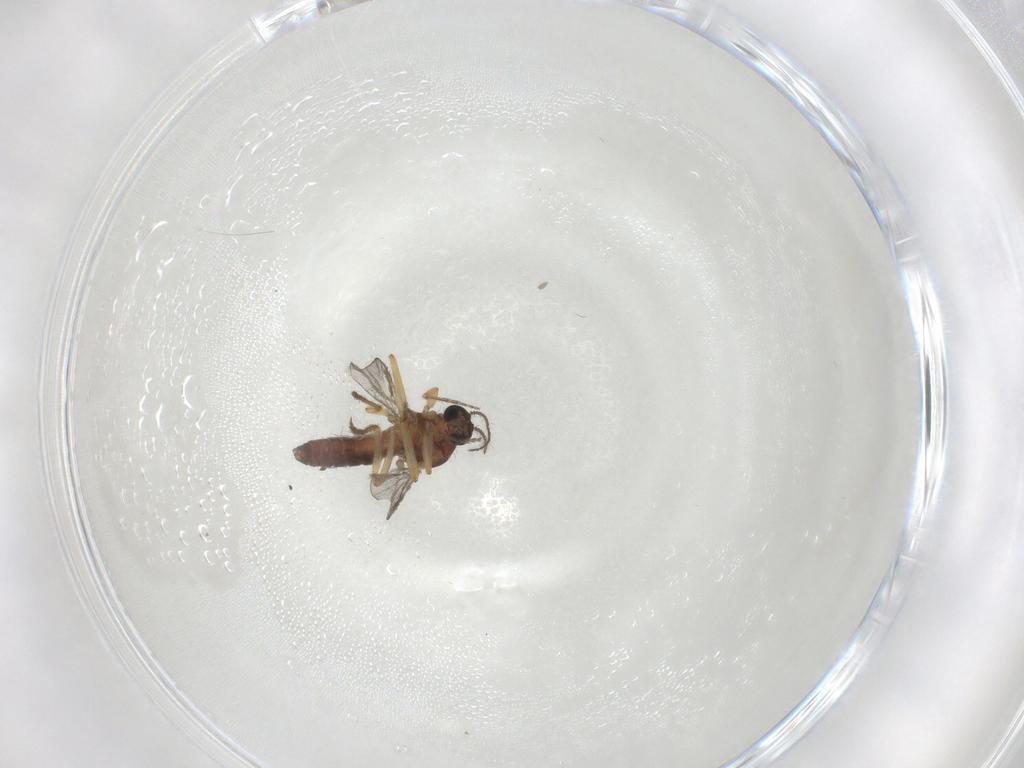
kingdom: Animalia
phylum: Arthropoda
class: Insecta
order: Diptera
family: Ceratopogonidae
